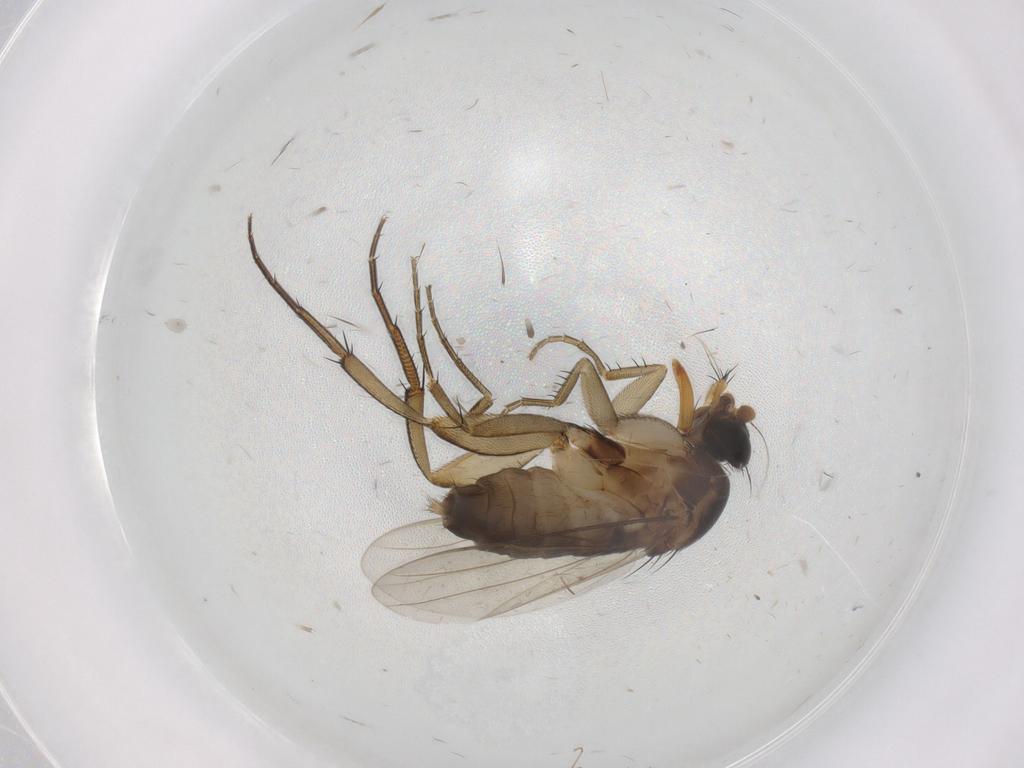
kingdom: Animalia
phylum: Arthropoda
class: Insecta
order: Diptera
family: Phoridae
